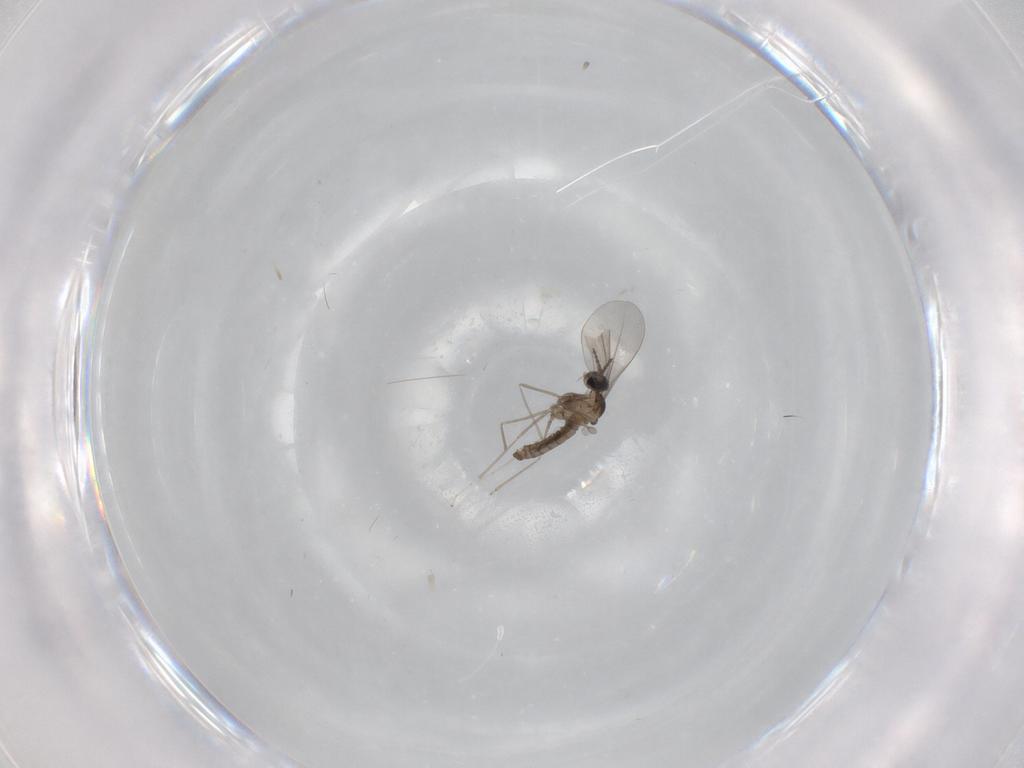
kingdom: Animalia
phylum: Arthropoda
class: Insecta
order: Diptera
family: Cecidomyiidae
